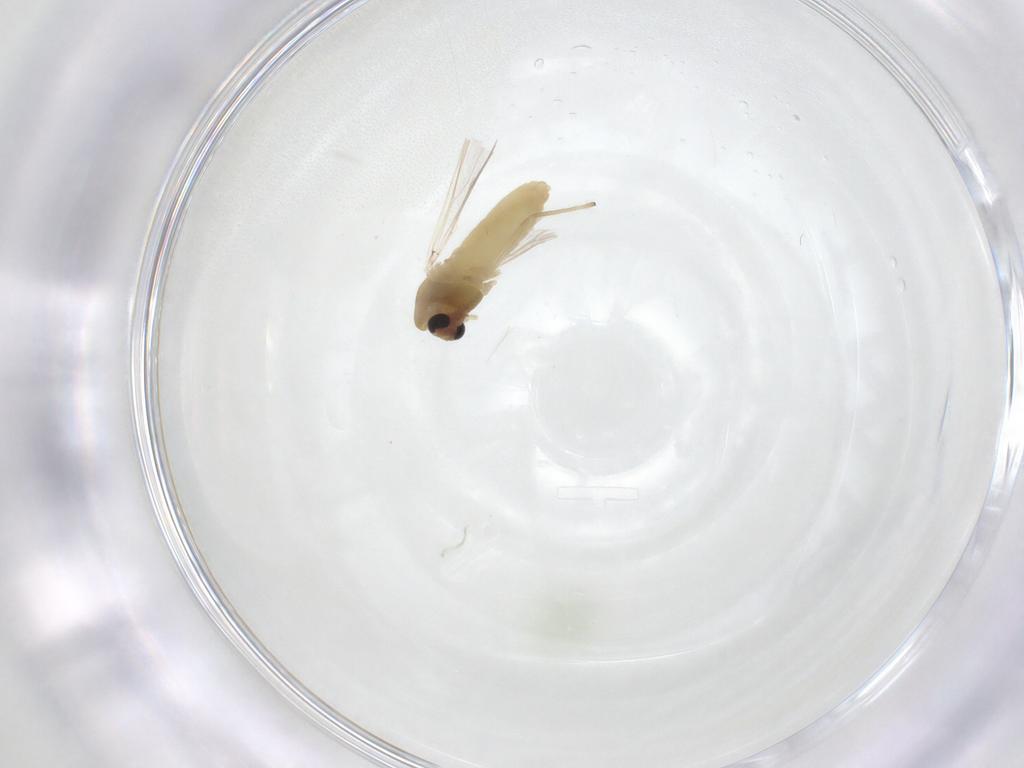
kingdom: Animalia
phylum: Arthropoda
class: Insecta
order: Diptera
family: Chironomidae
